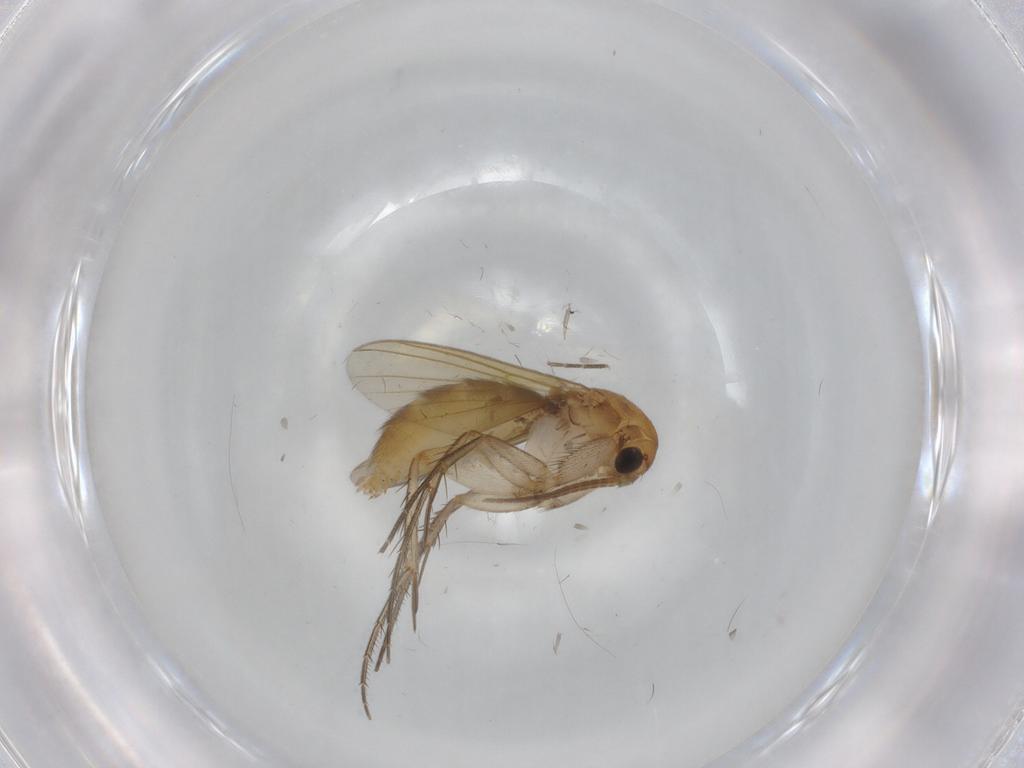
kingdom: Animalia
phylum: Arthropoda
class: Insecta
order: Diptera
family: Mycetophilidae
